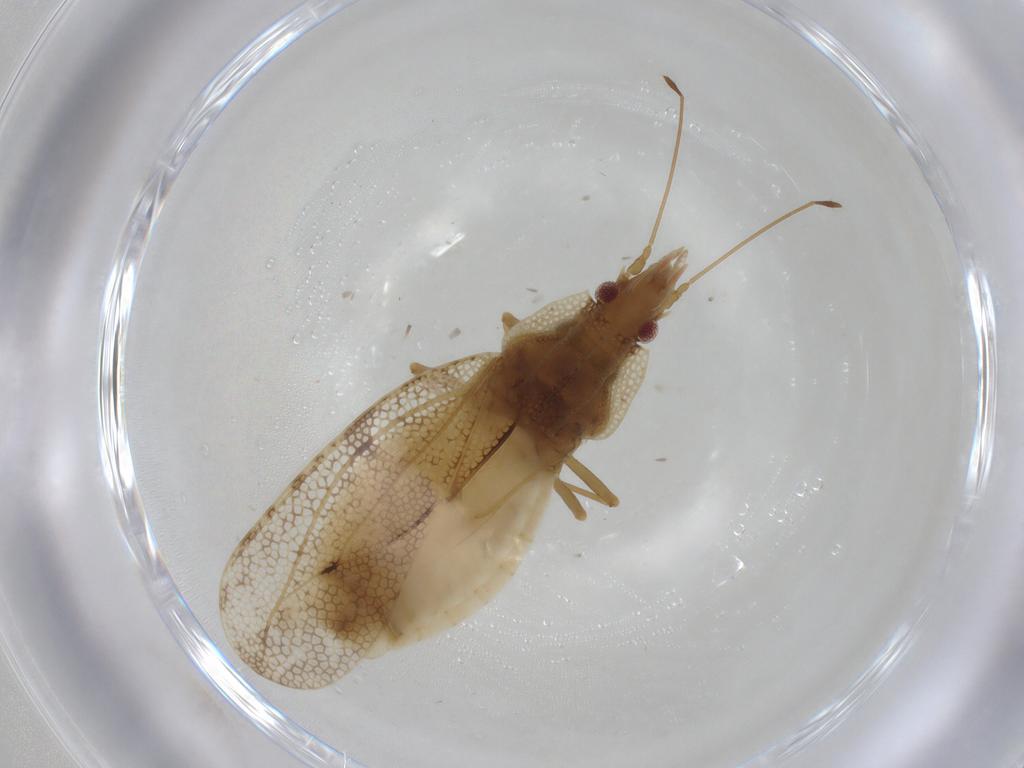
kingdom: Animalia
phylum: Arthropoda
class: Insecta
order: Hemiptera
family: Tingidae
